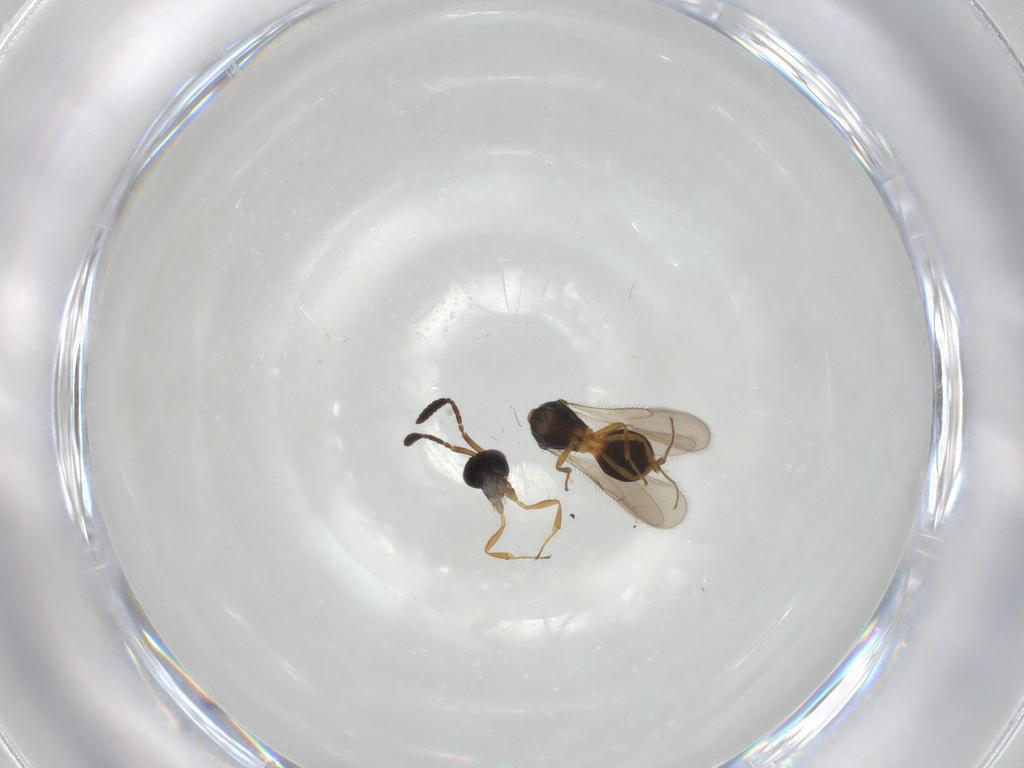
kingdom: Animalia
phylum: Arthropoda
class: Insecta
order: Hymenoptera
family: Scelionidae
